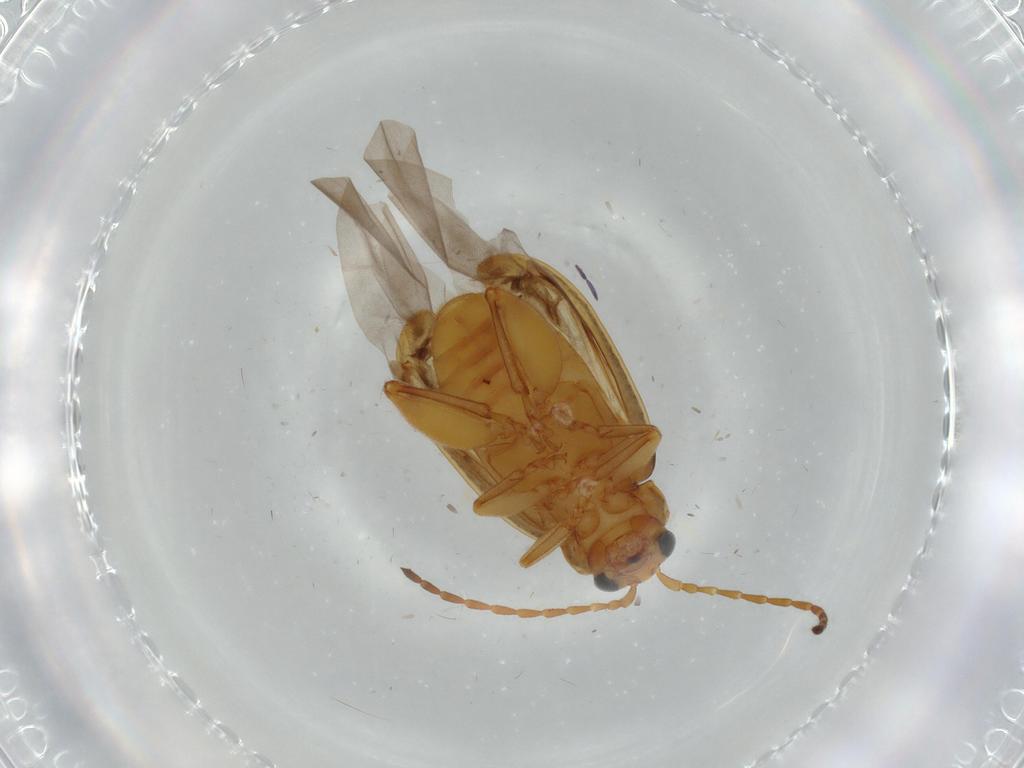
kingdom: Animalia
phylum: Arthropoda
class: Insecta
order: Coleoptera
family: Chrysomelidae
